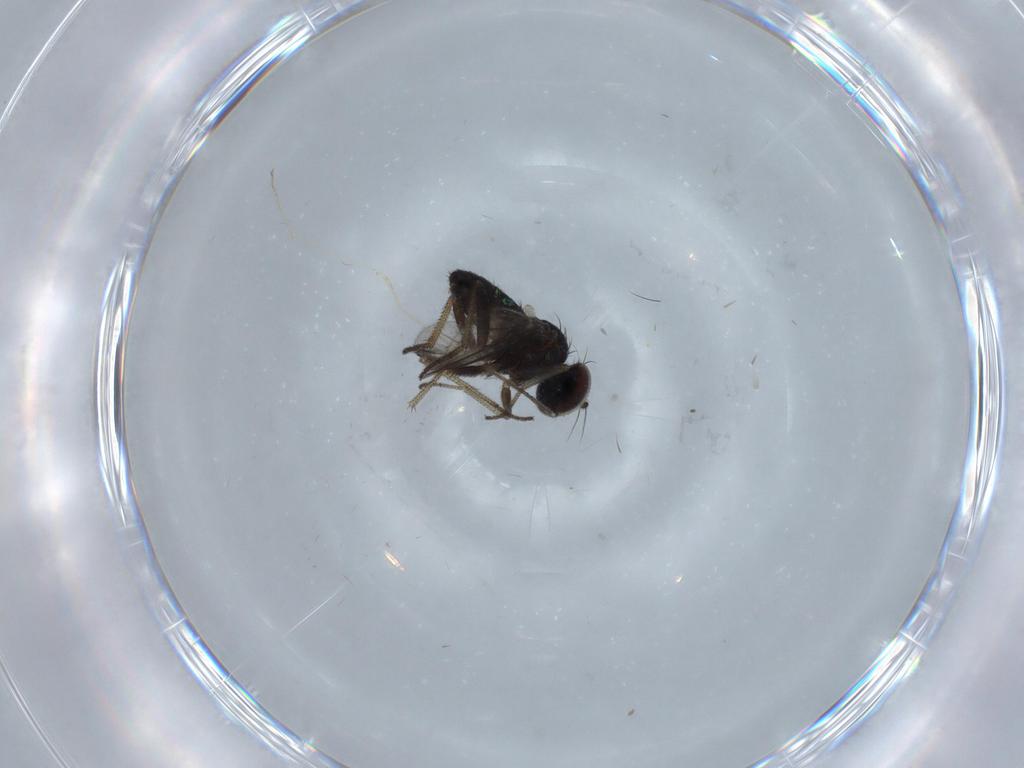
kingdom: Animalia
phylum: Arthropoda
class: Insecta
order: Diptera
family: Cecidomyiidae
